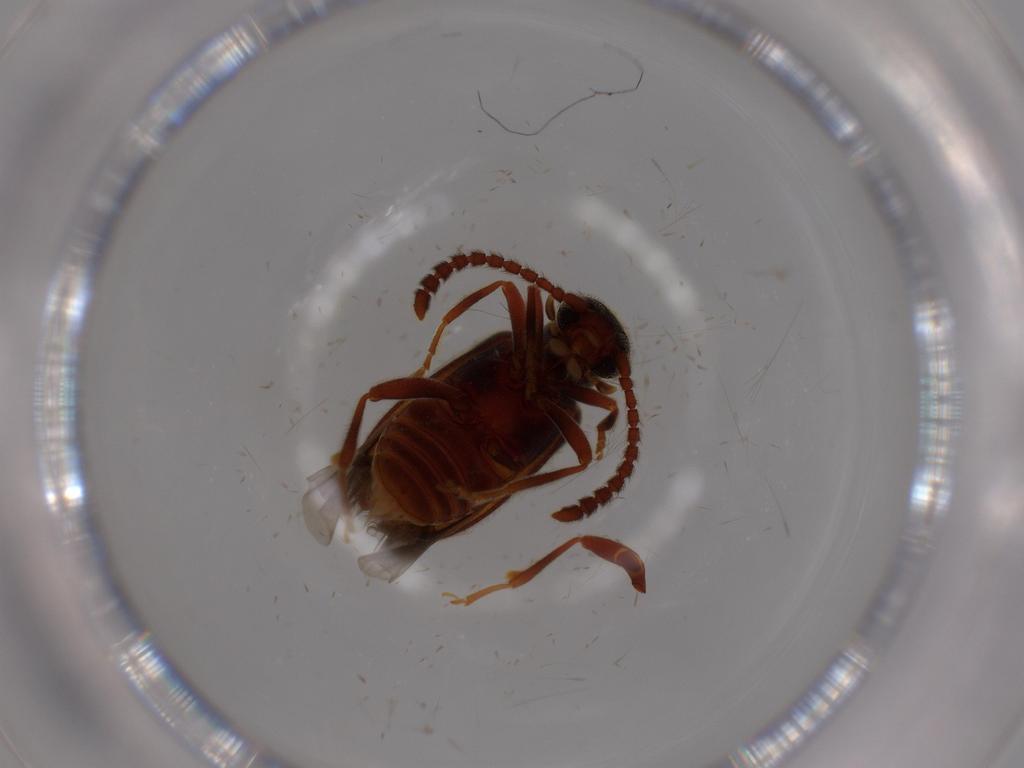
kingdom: Animalia
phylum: Arthropoda
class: Insecta
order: Coleoptera
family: Aderidae
